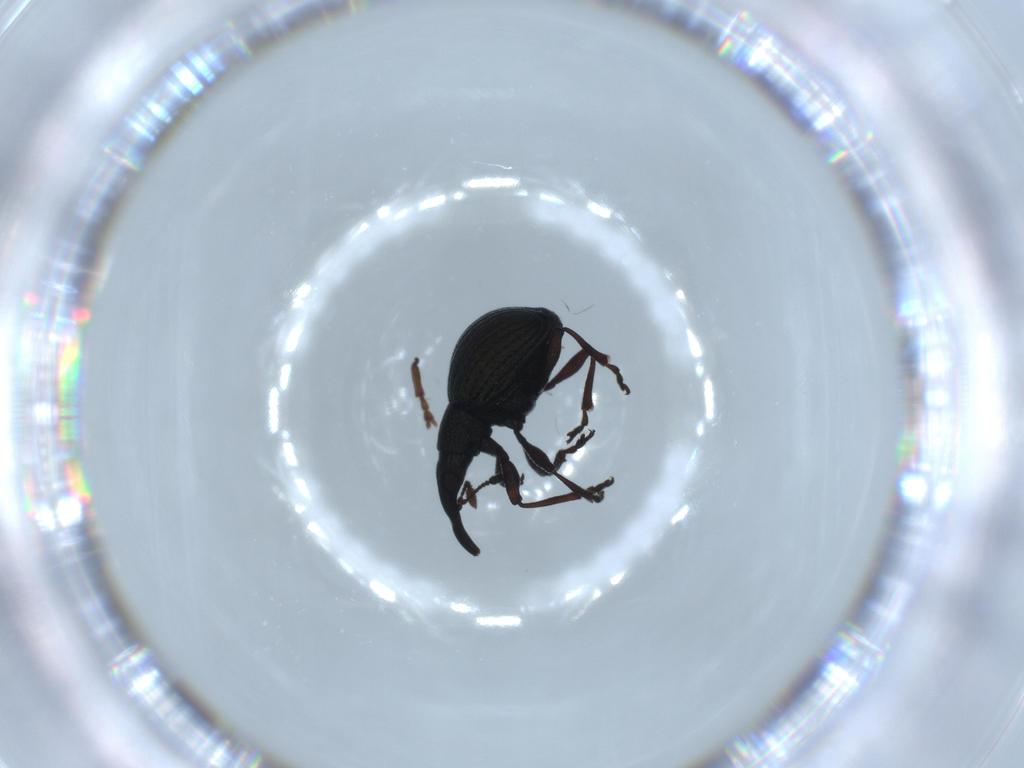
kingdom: Animalia
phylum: Arthropoda
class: Insecta
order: Coleoptera
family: Brentidae
